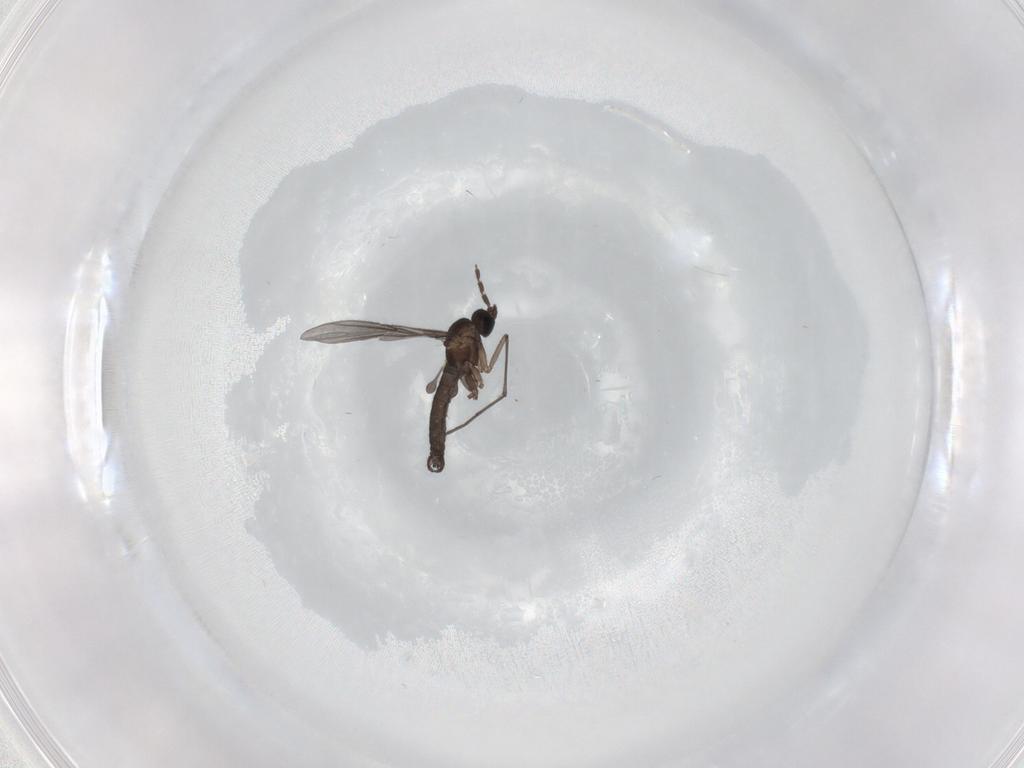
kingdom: Animalia
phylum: Arthropoda
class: Insecta
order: Diptera
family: Sciaridae
